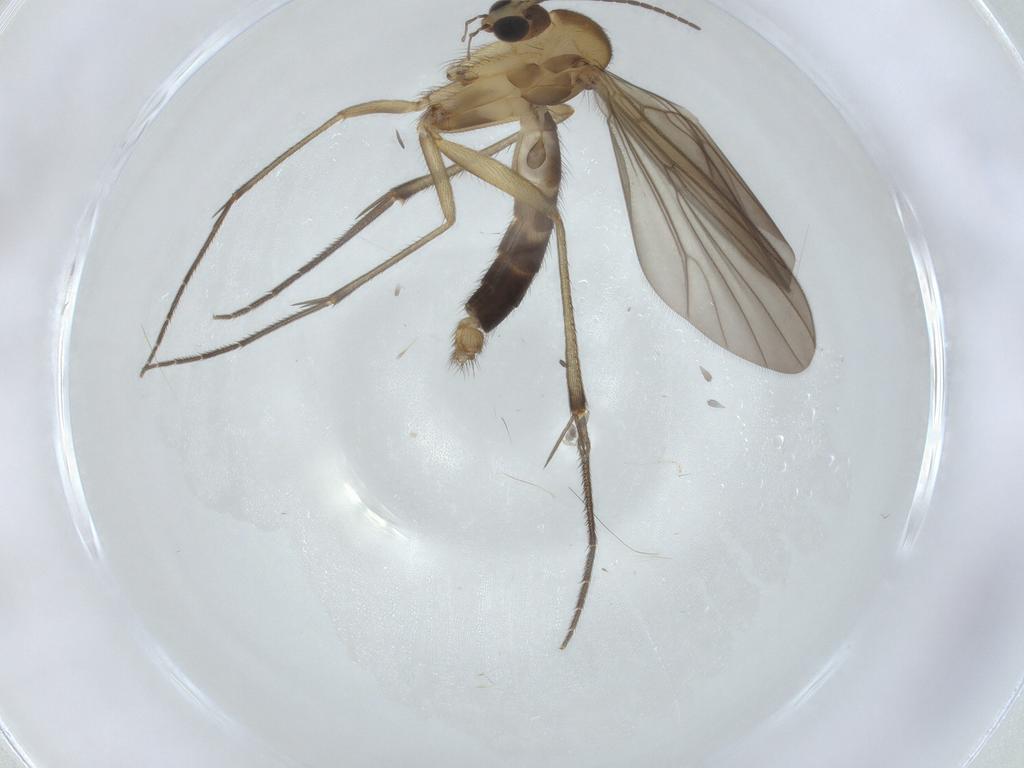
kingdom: Animalia
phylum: Arthropoda
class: Insecta
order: Diptera
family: Mycetophilidae
